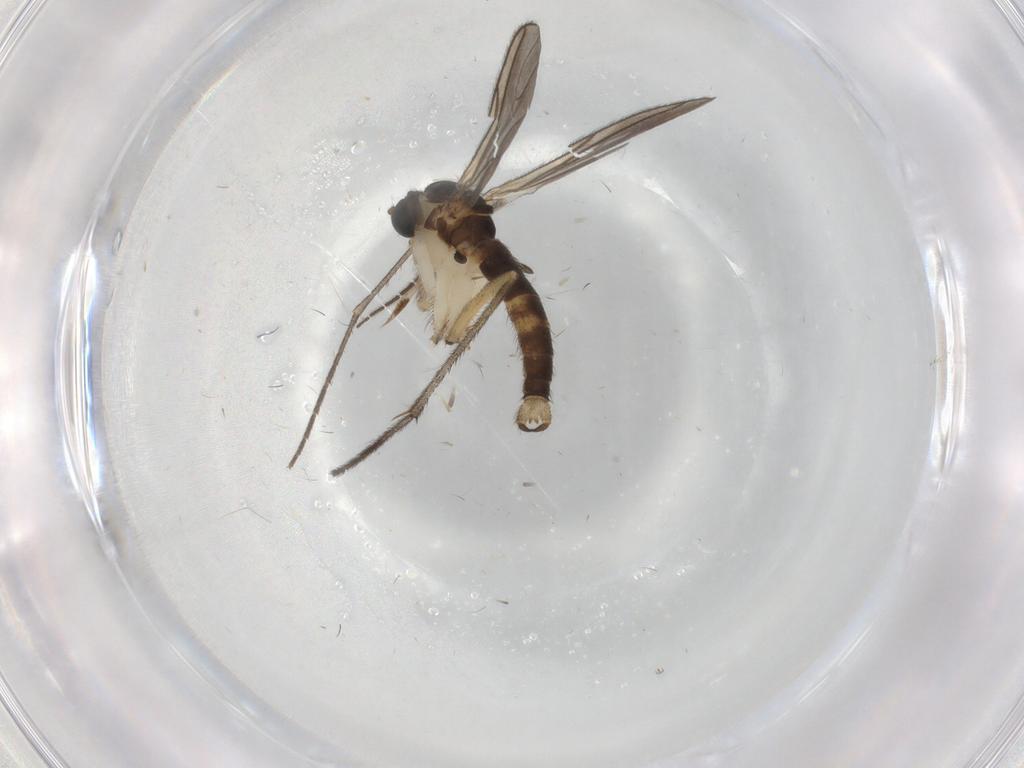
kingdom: Animalia
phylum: Arthropoda
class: Insecta
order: Diptera
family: Sciaridae
